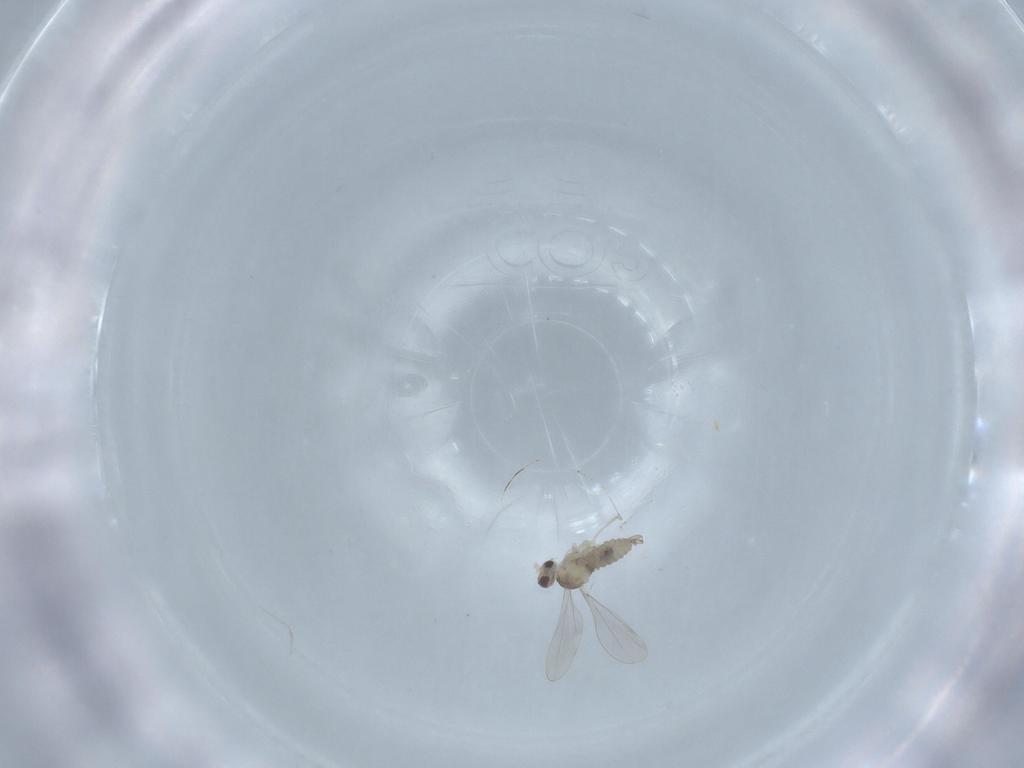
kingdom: Animalia
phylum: Arthropoda
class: Insecta
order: Diptera
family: Cecidomyiidae
